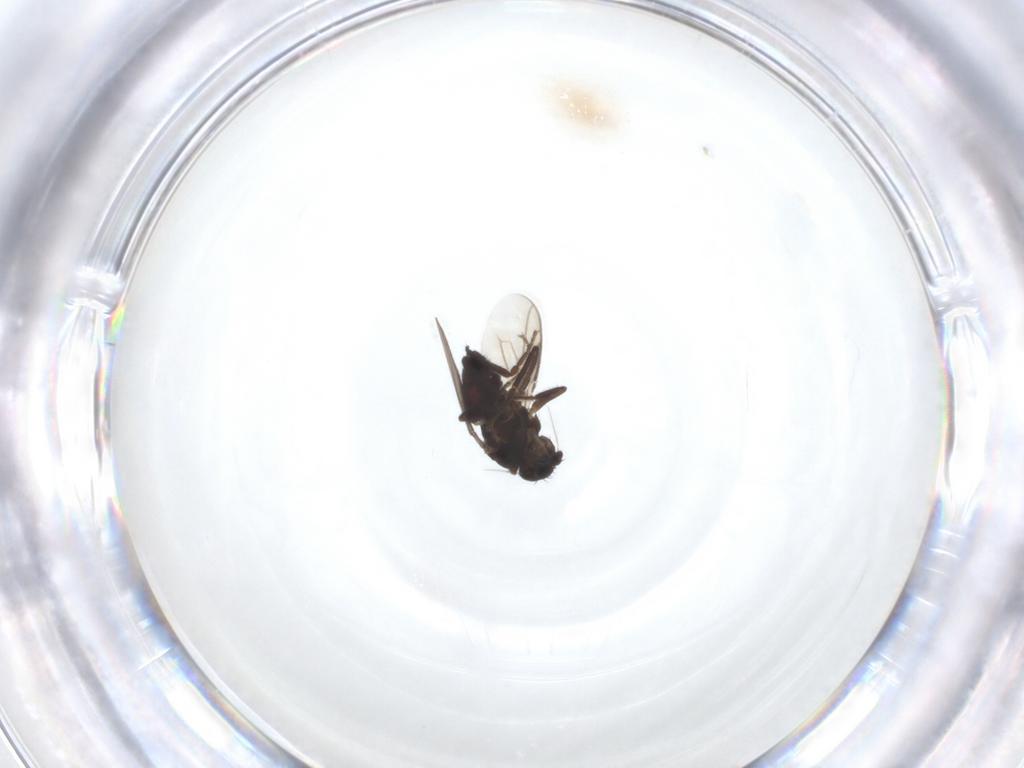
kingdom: Animalia
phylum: Arthropoda
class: Insecta
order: Diptera
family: Sphaeroceridae
